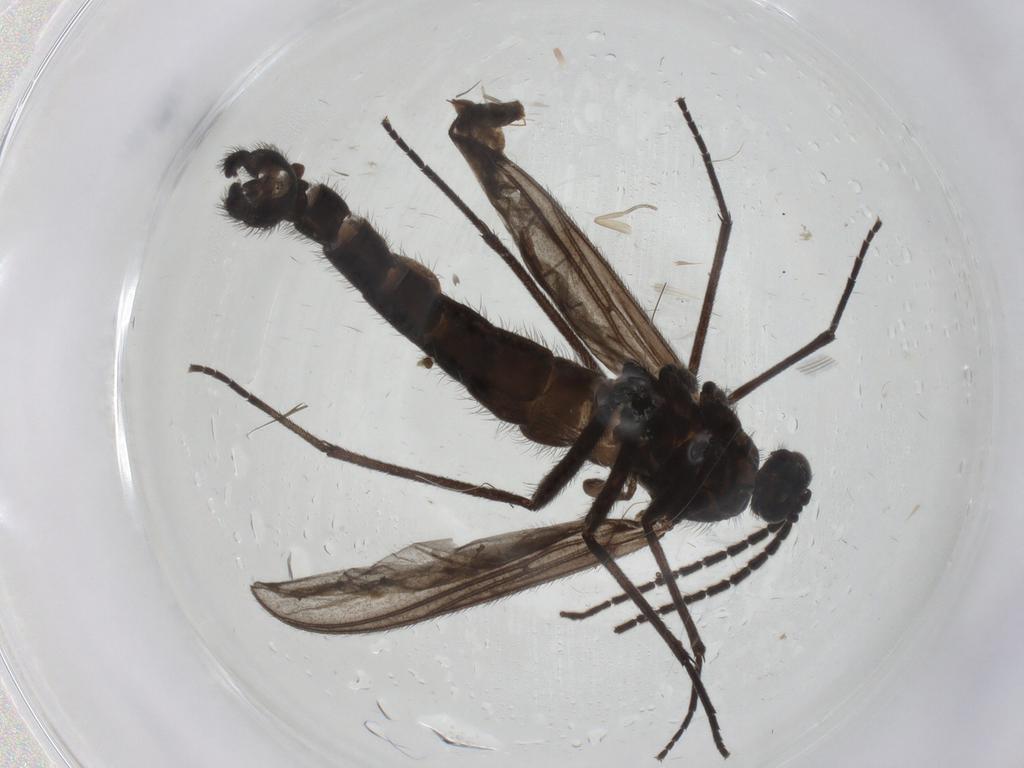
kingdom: Animalia
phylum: Arthropoda
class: Insecta
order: Diptera
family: Phoridae
